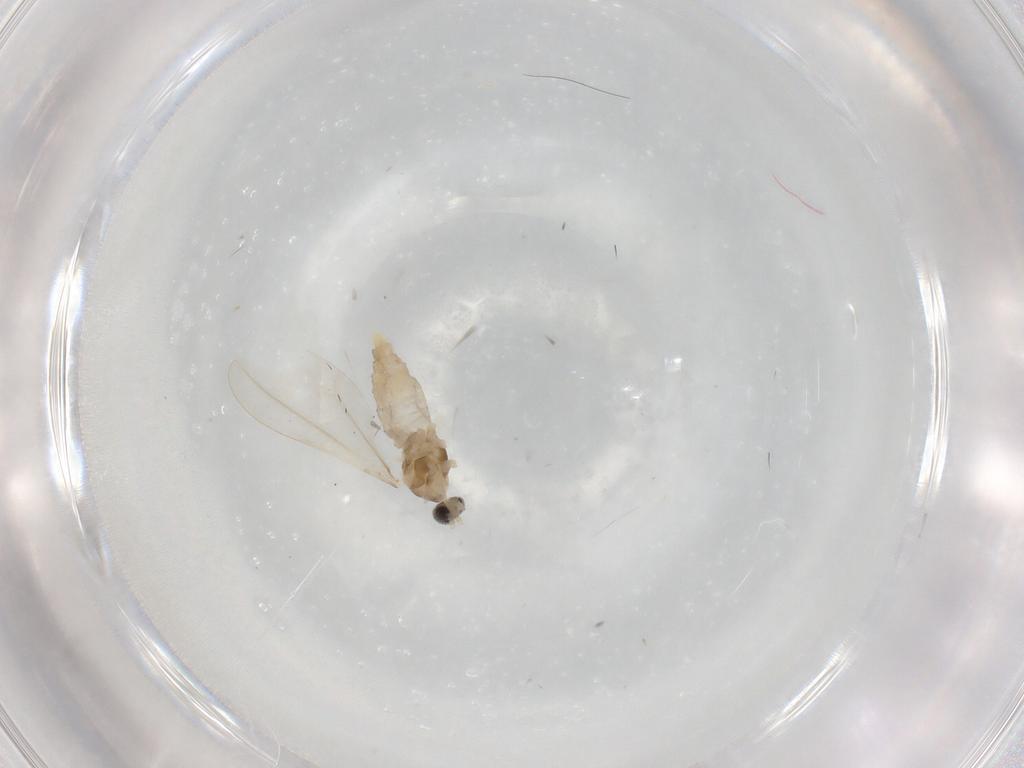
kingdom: Animalia
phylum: Arthropoda
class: Insecta
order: Diptera
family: Cecidomyiidae
